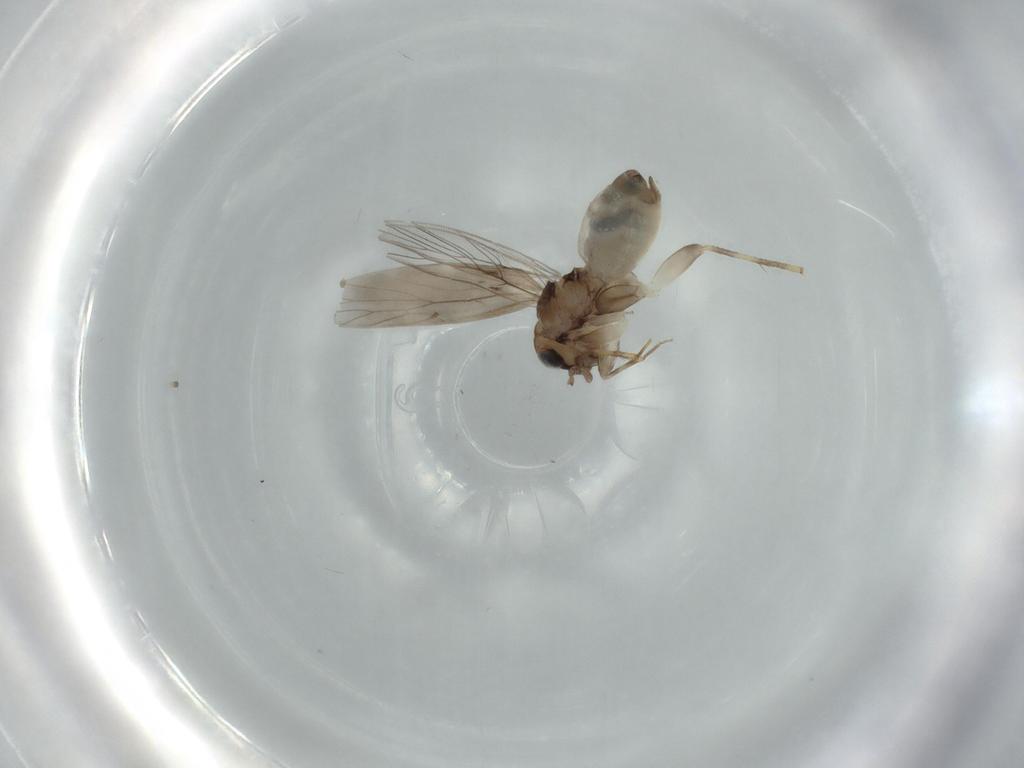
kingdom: Animalia
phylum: Arthropoda
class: Insecta
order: Psocodea
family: Lepidopsocidae
